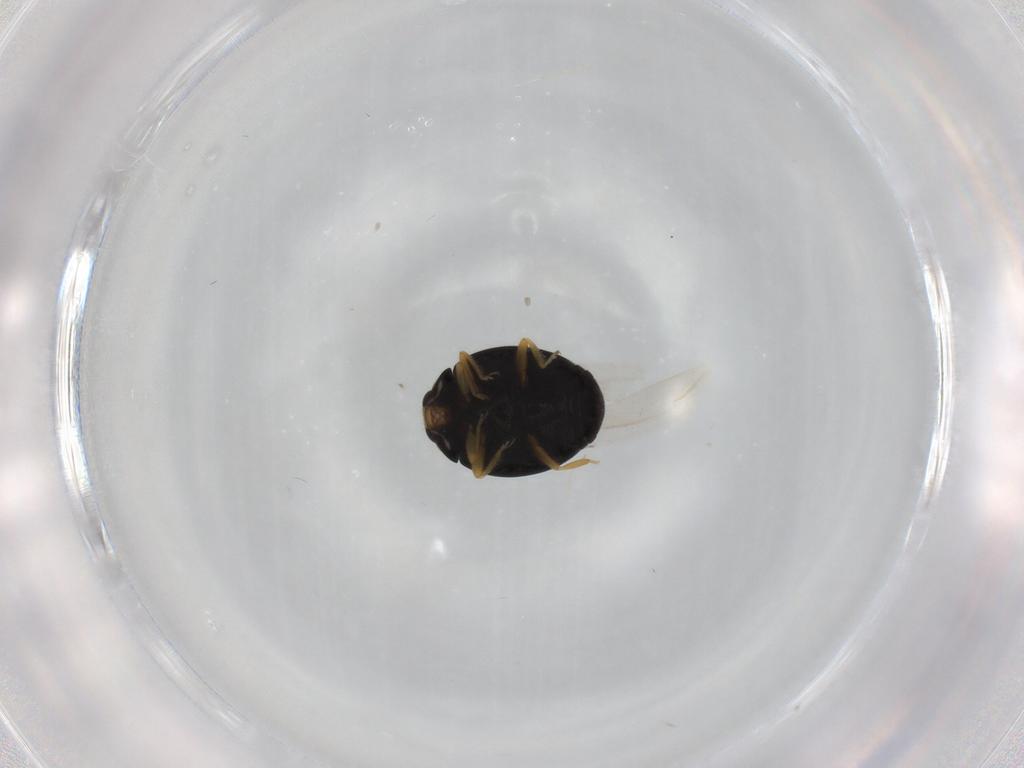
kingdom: Animalia
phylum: Arthropoda
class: Insecta
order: Coleoptera
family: Coccinellidae
